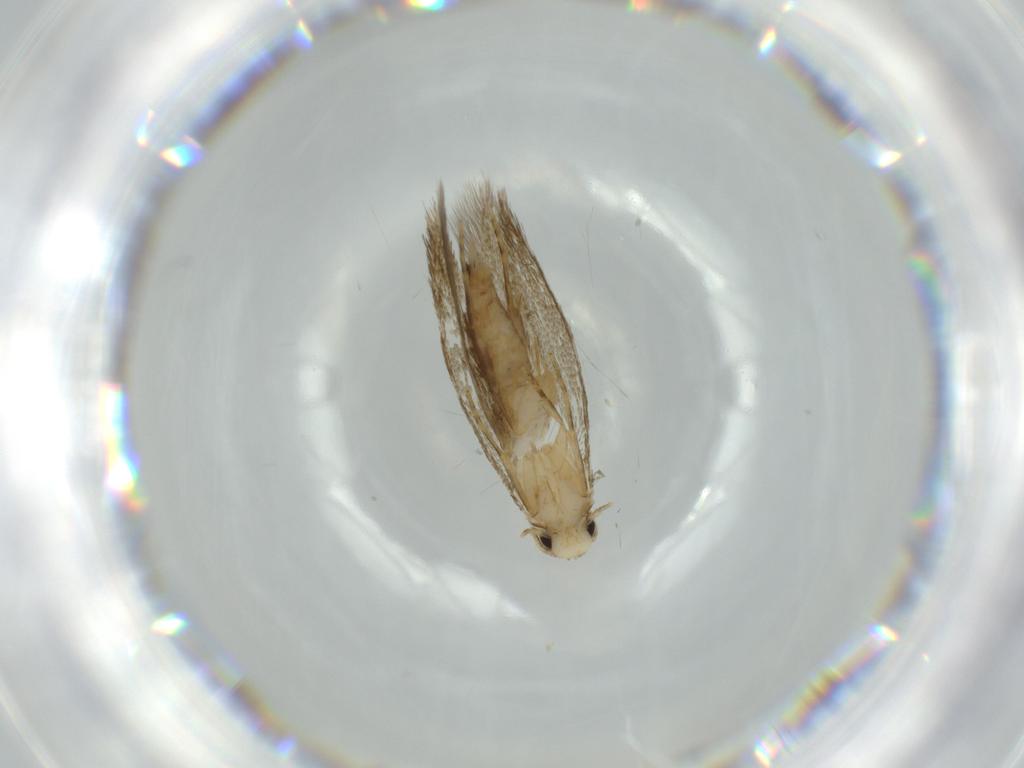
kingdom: Animalia
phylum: Arthropoda
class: Insecta
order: Lepidoptera
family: Tineidae
